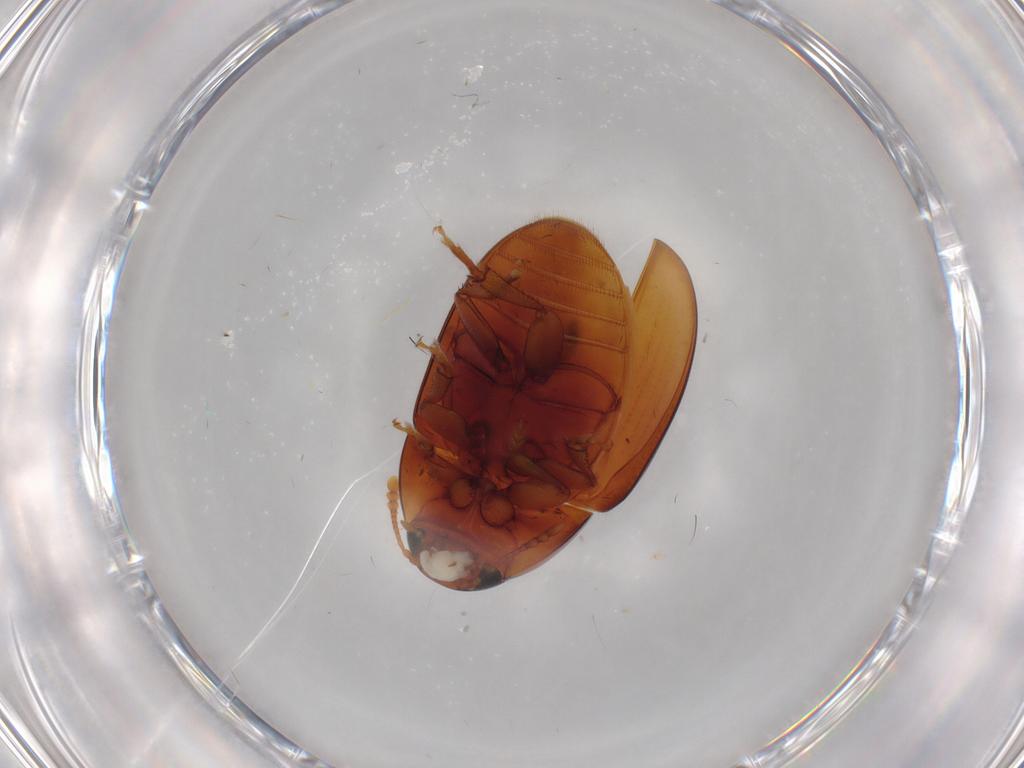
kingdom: Animalia
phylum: Arthropoda
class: Insecta
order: Coleoptera
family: Phalacridae
